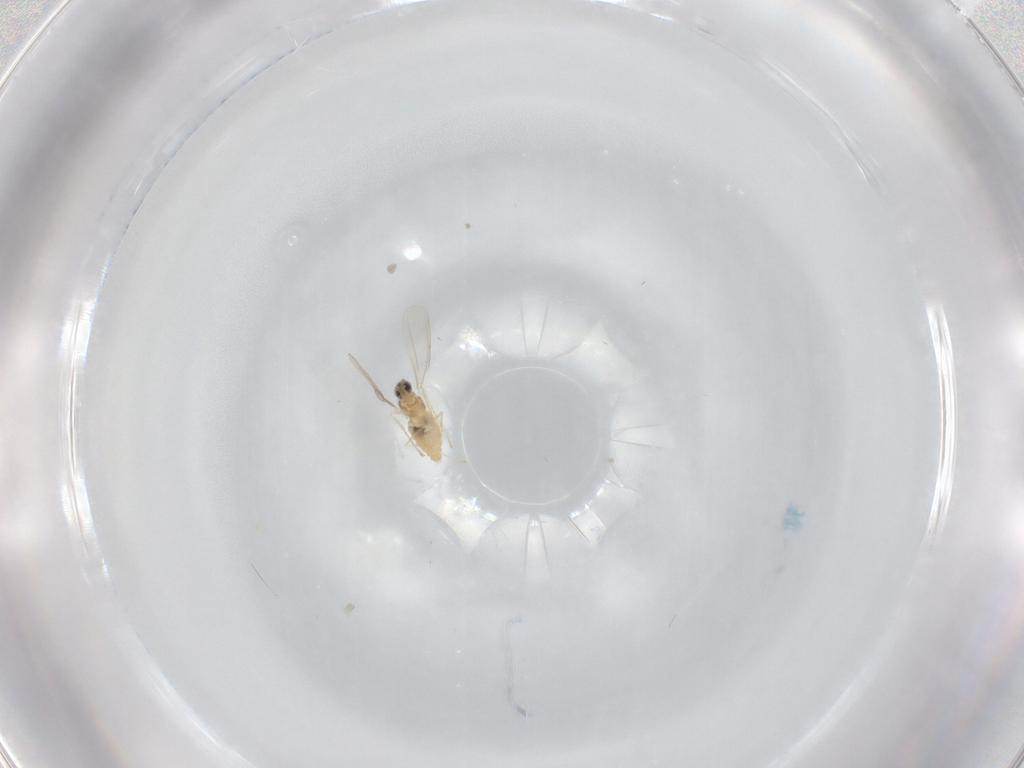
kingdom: Animalia
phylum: Arthropoda
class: Insecta
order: Diptera
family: Cecidomyiidae
